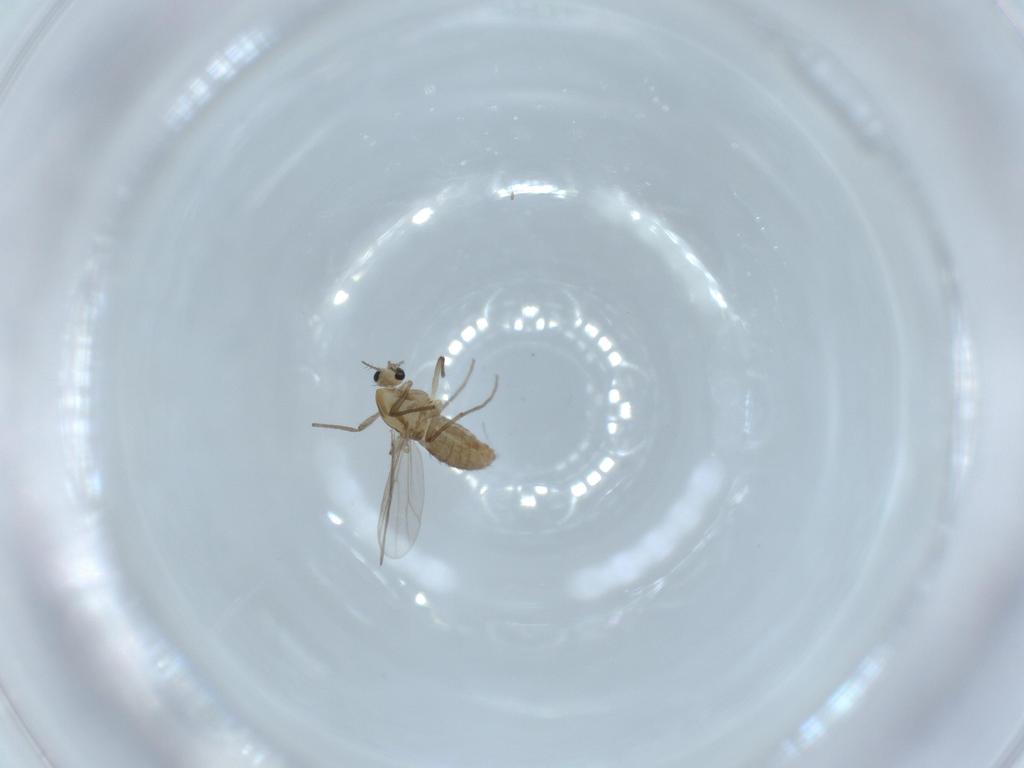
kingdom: Animalia
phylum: Arthropoda
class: Insecta
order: Diptera
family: Chironomidae
